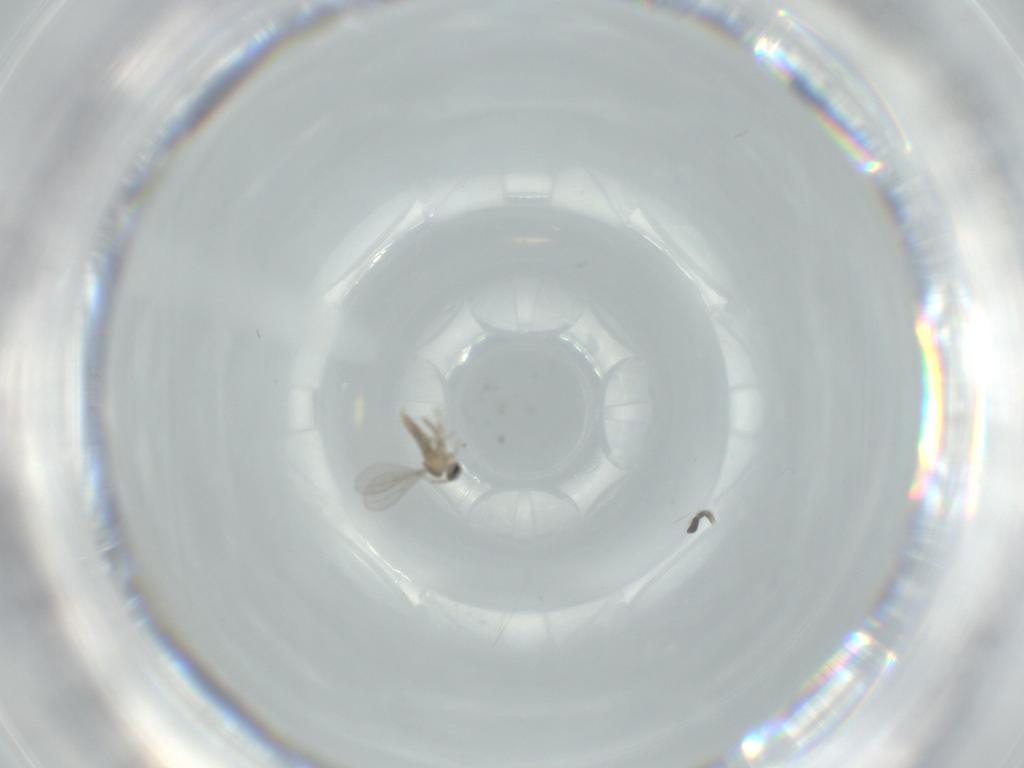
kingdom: Animalia
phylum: Arthropoda
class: Insecta
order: Diptera
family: Cecidomyiidae
